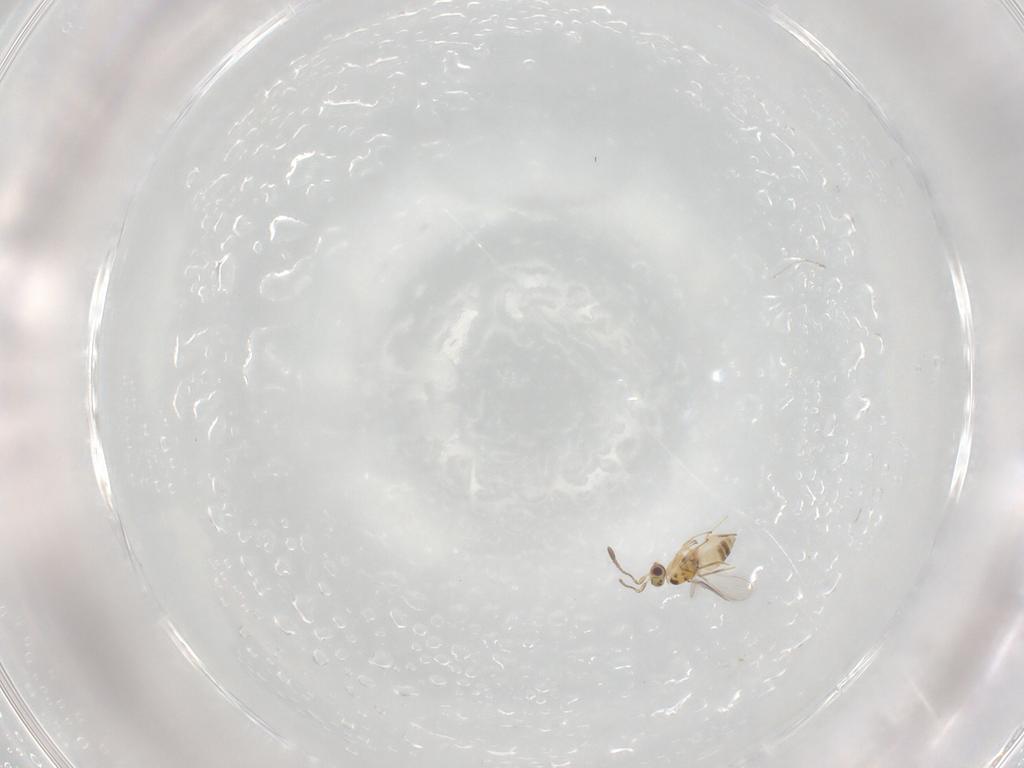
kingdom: Animalia
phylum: Arthropoda
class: Insecta
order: Hymenoptera
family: Mymaridae
